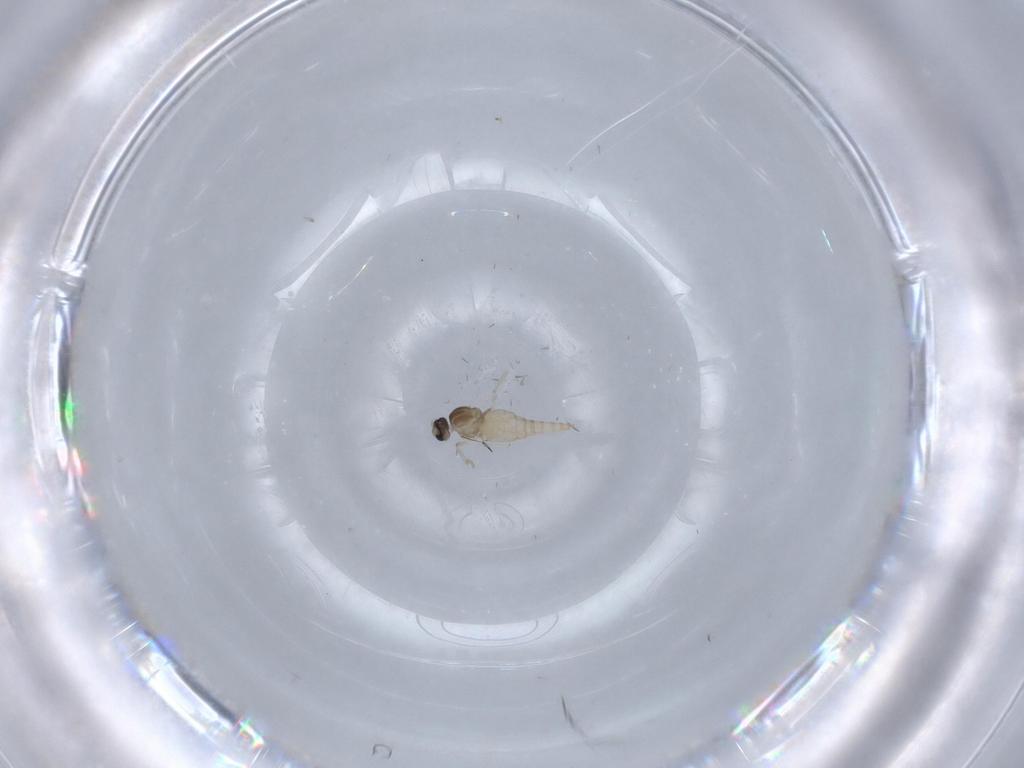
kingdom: Animalia
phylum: Arthropoda
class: Insecta
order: Diptera
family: Cecidomyiidae
